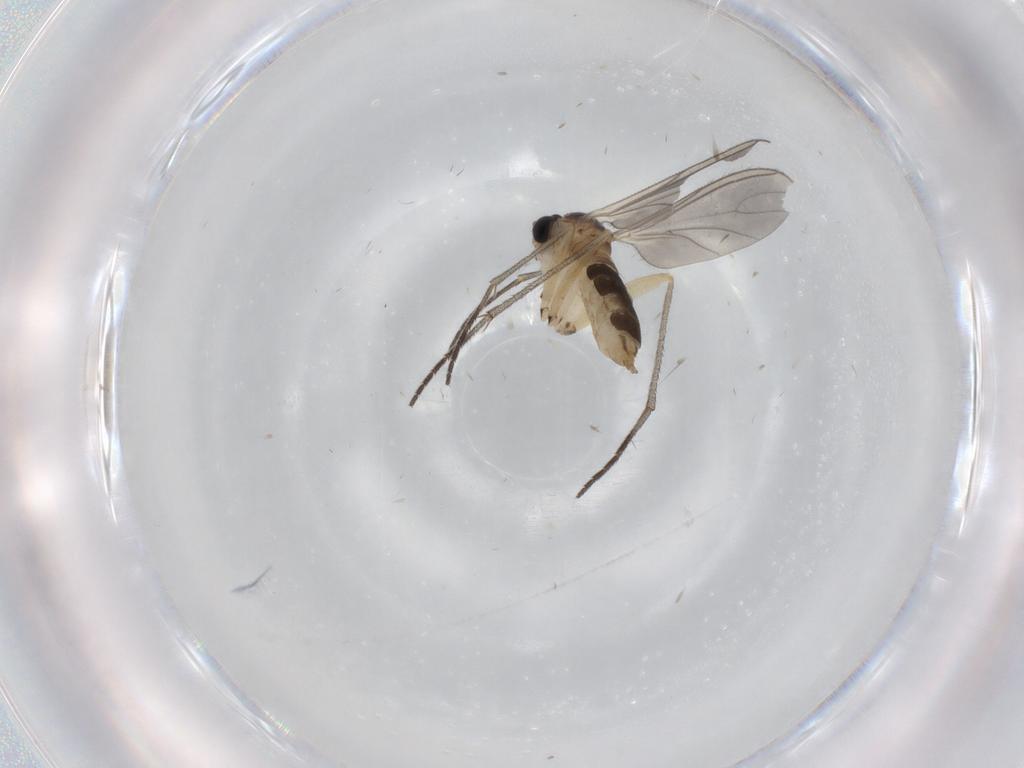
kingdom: Animalia
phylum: Arthropoda
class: Insecta
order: Diptera
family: Sciaridae
